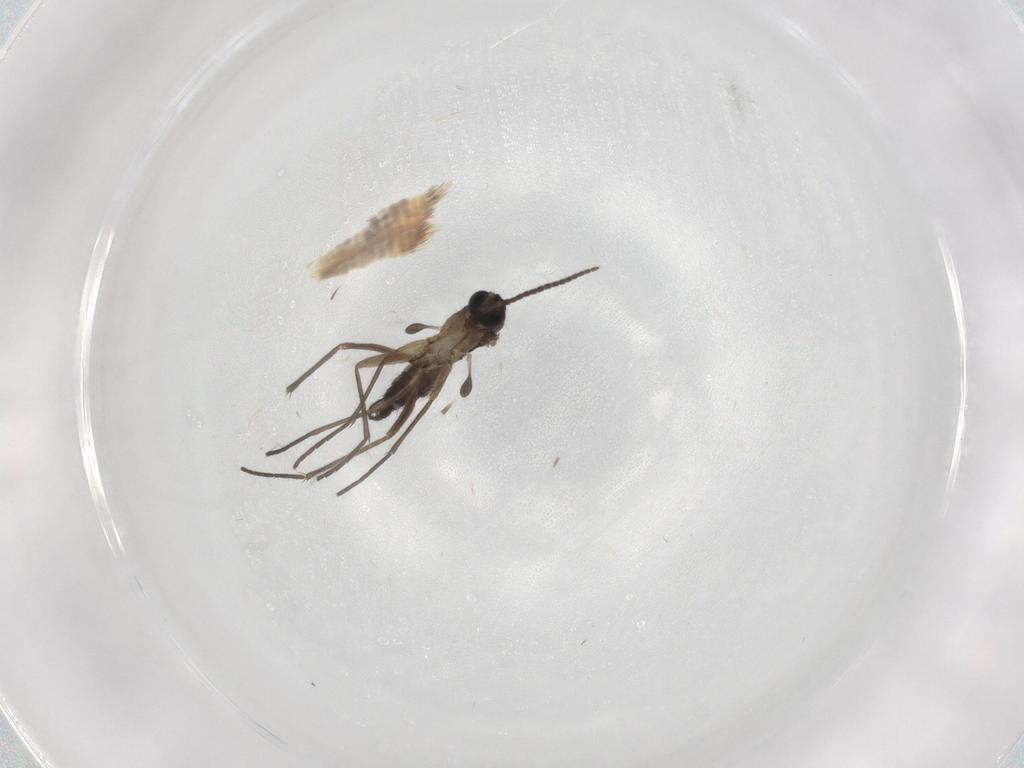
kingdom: Animalia
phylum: Arthropoda
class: Insecta
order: Diptera
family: Sciaridae
